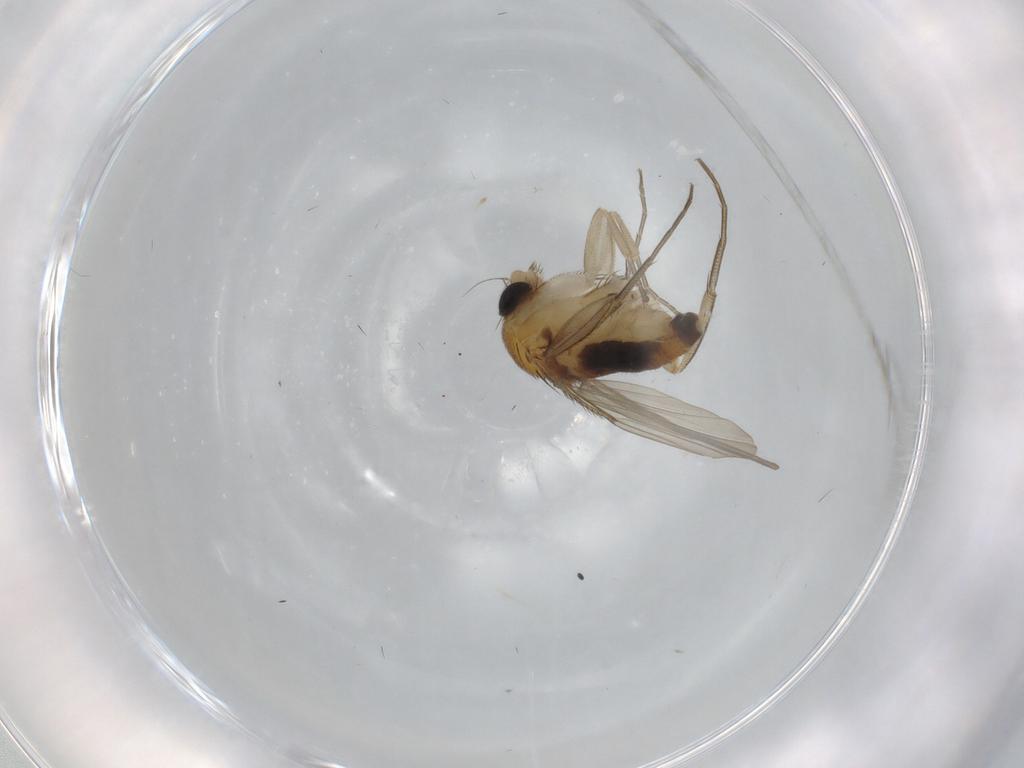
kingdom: Animalia
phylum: Arthropoda
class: Insecta
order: Diptera
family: Phoridae
